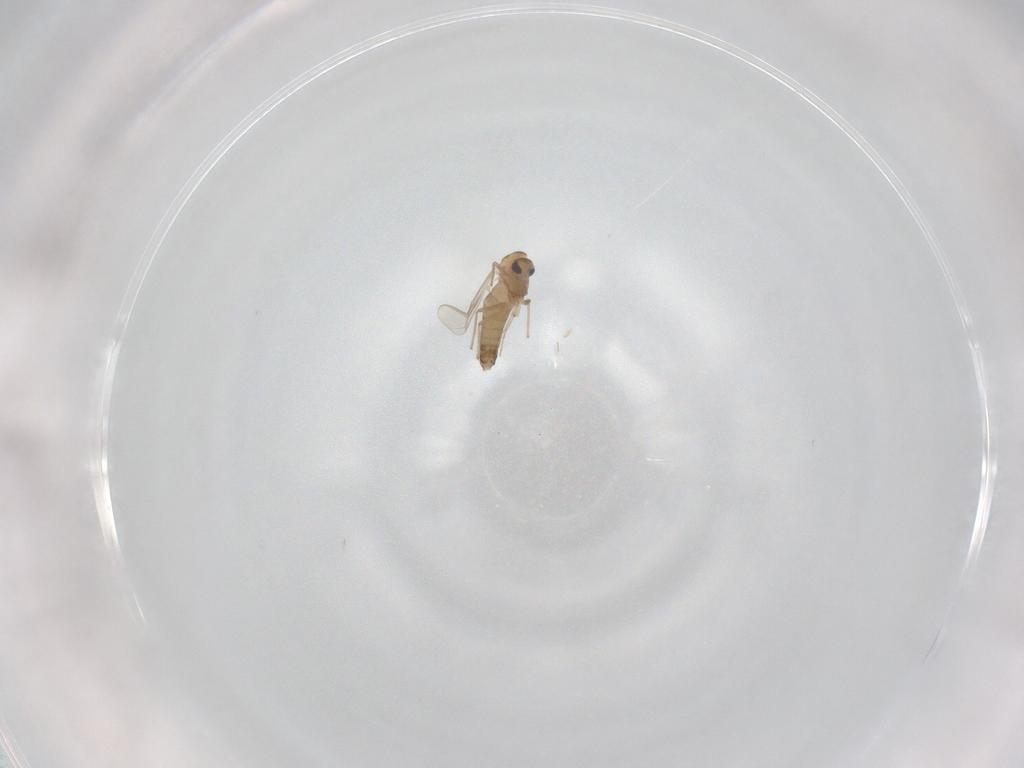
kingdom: Animalia
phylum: Arthropoda
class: Insecta
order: Diptera
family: Chironomidae
